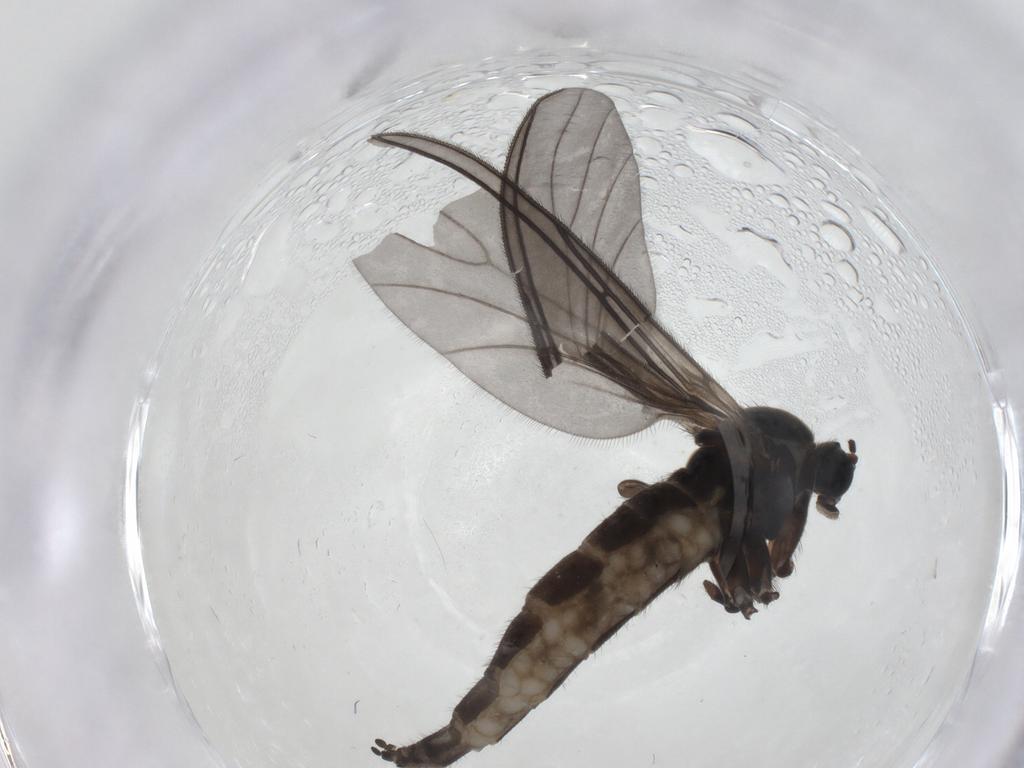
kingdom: Animalia
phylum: Arthropoda
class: Insecta
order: Diptera
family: Sciaridae
